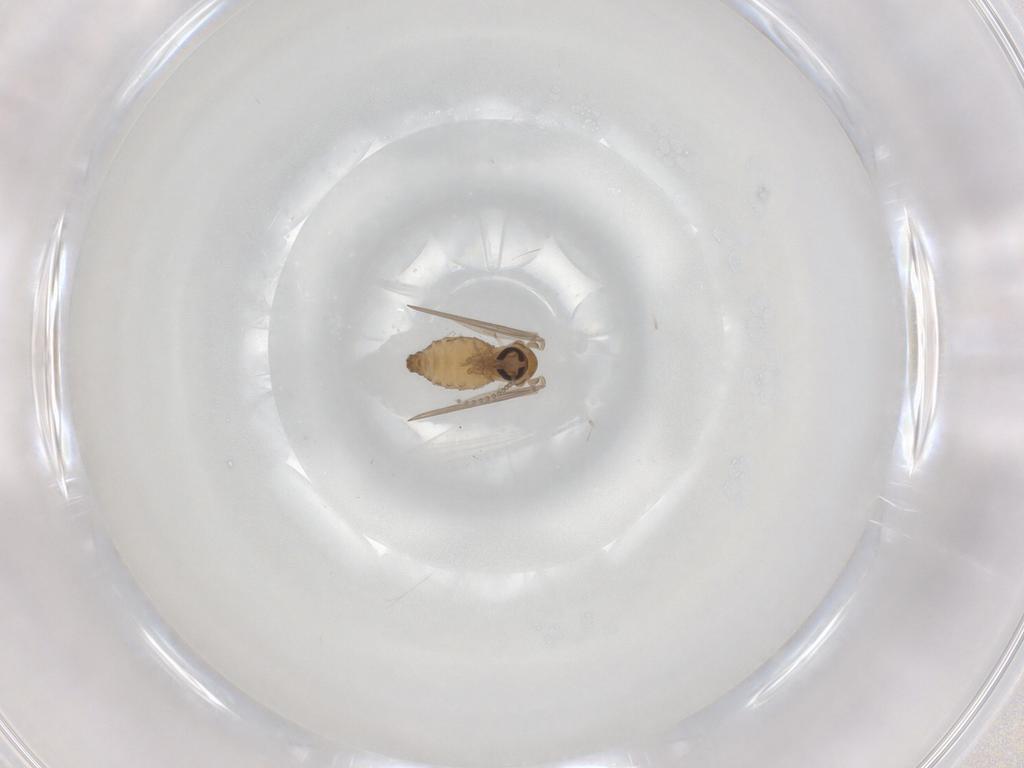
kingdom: Animalia
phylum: Arthropoda
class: Insecta
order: Diptera
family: Psychodidae
